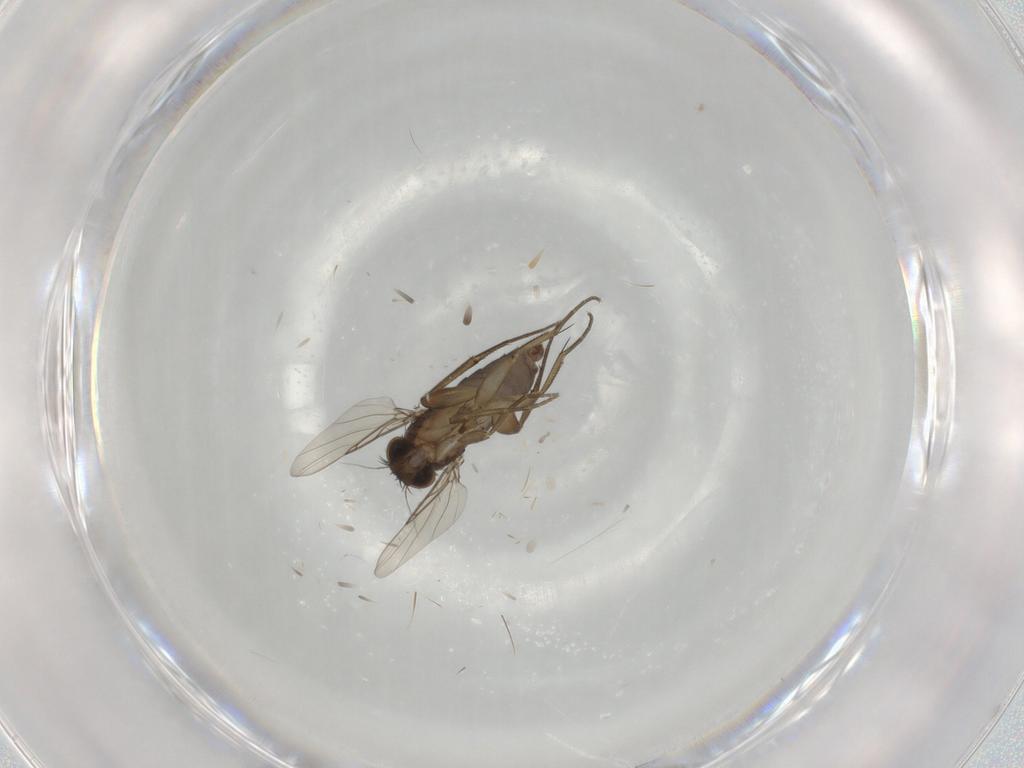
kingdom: Animalia
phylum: Arthropoda
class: Insecta
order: Diptera
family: Phoridae
